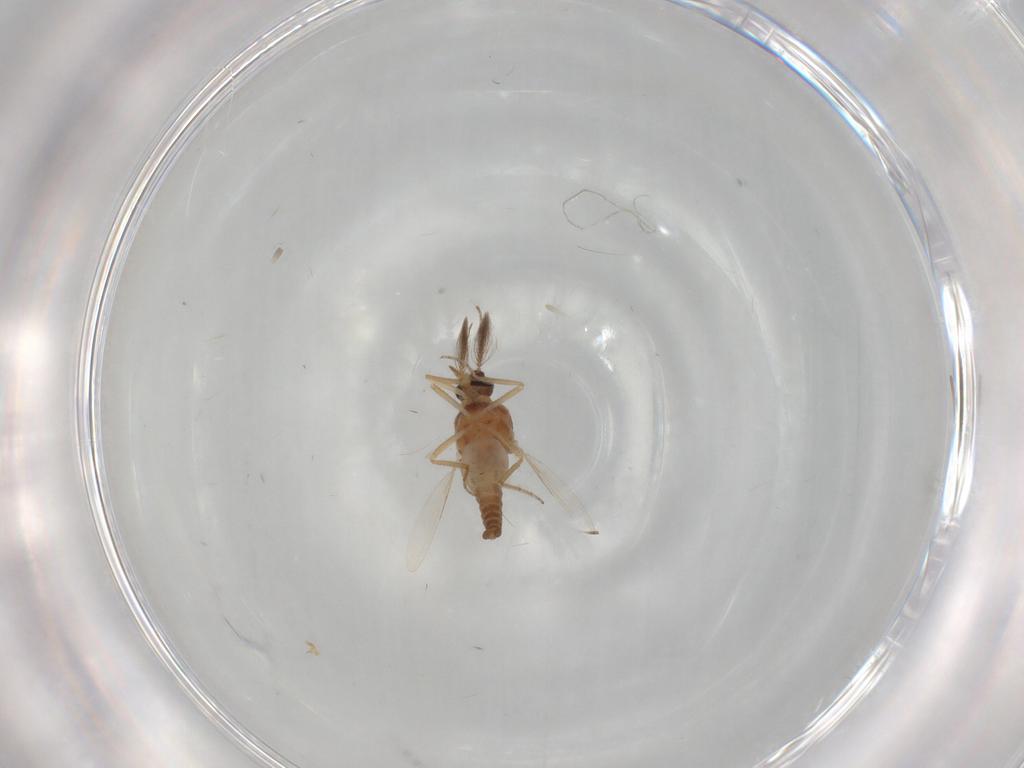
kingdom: Animalia
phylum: Arthropoda
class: Insecta
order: Diptera
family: Ceratopogonidae
